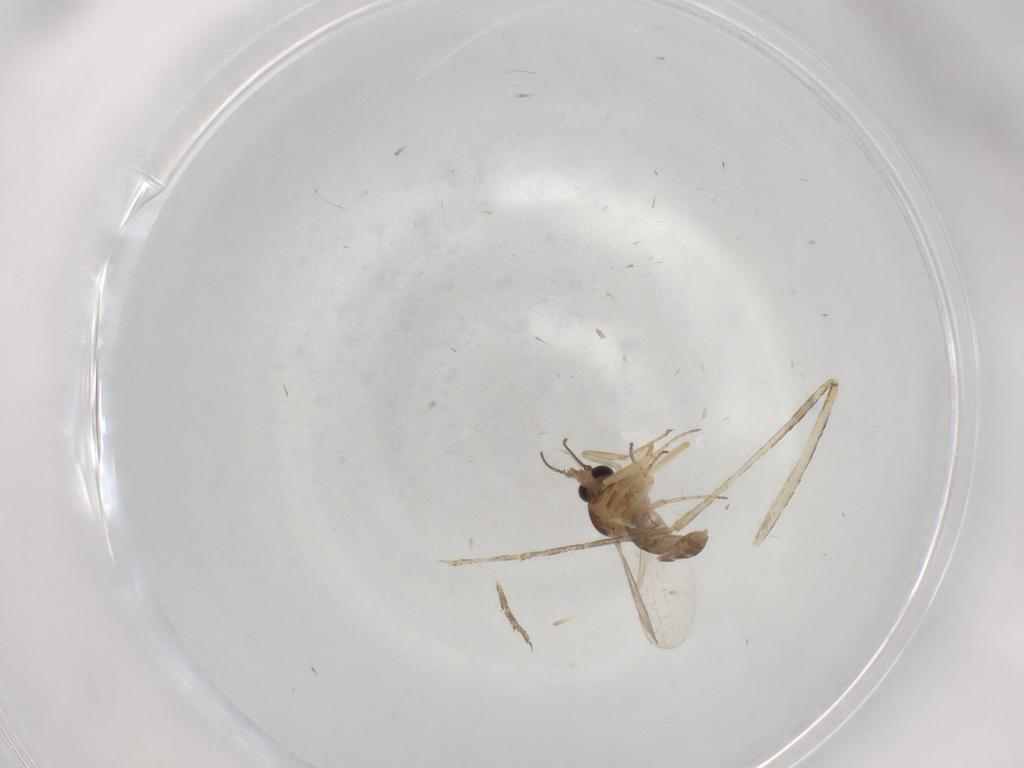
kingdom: Animalia
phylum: Arthropoda
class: Insecta
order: Diptera
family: Culicidae
